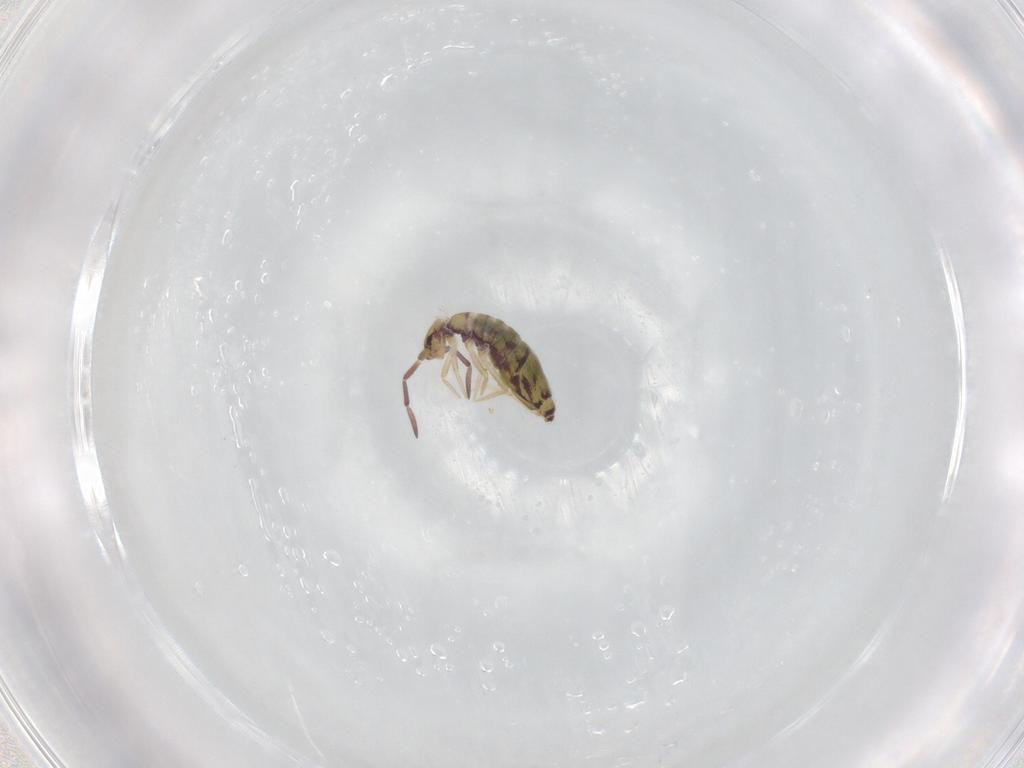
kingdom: Animalia
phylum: Arthropoda
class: Collembola
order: Entomobryomorpha
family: Entomobryidae
